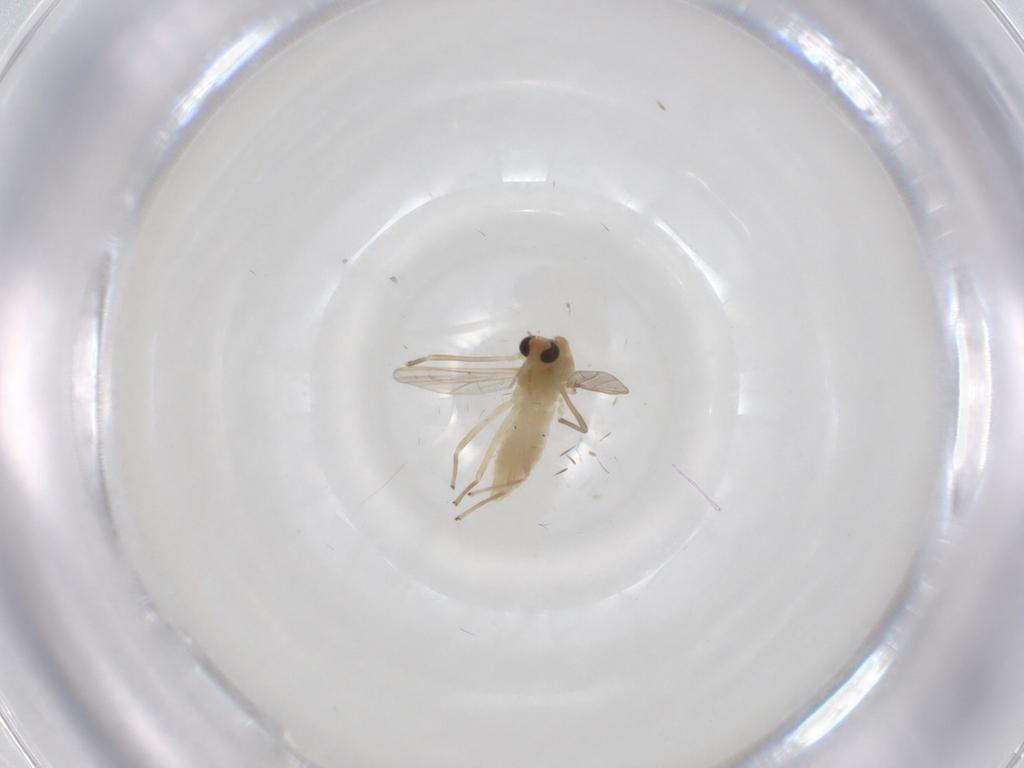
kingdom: Animalia
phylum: Arthropoda
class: Insecta
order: Diptera
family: Chironomidae
